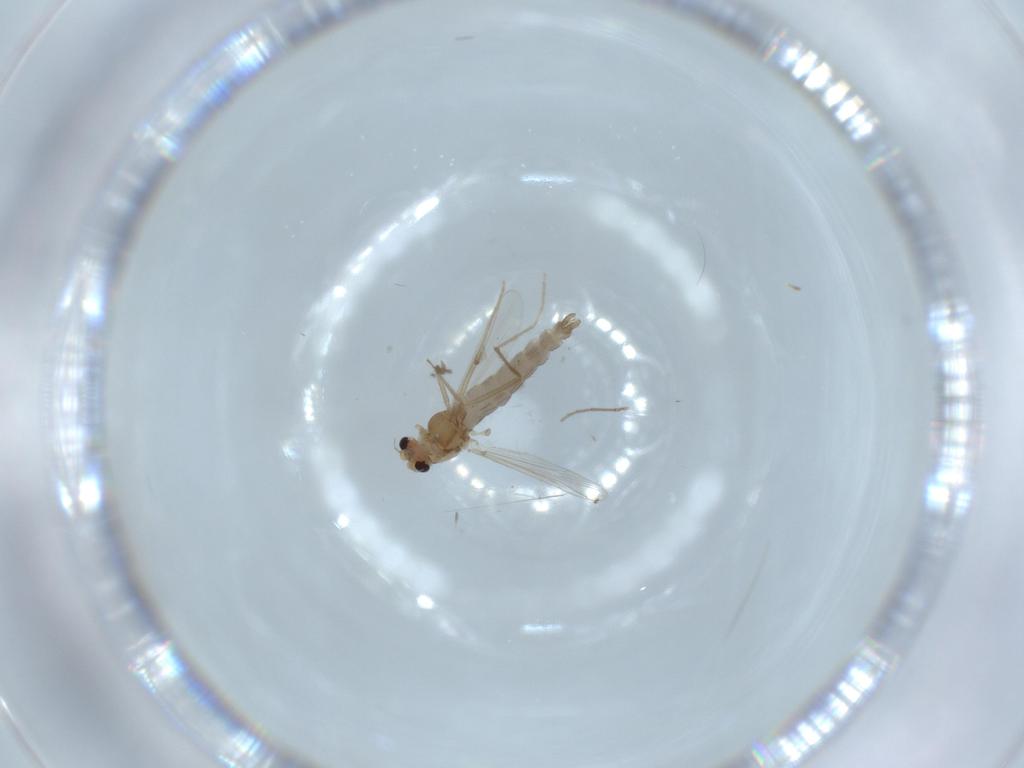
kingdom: Animalia
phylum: Arthropoda
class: Insecta
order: Diptera
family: Chironomidae
